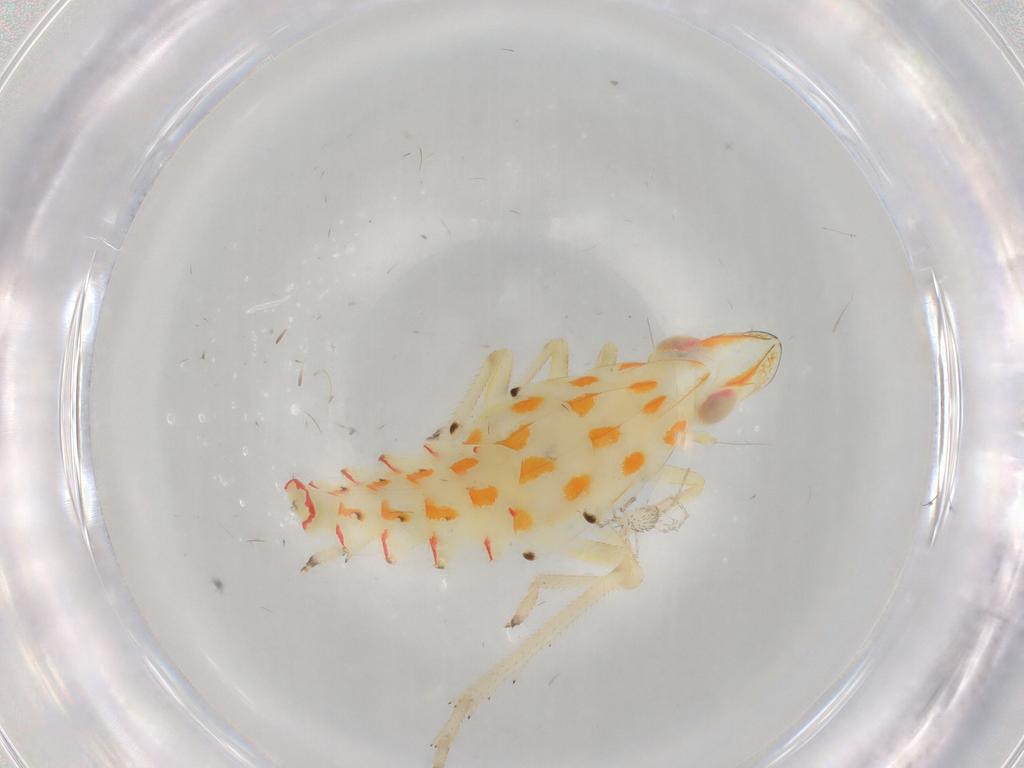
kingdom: Animalia
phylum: Arthropoda
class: Insecta
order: Hemiptera
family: Tropiduchidae
